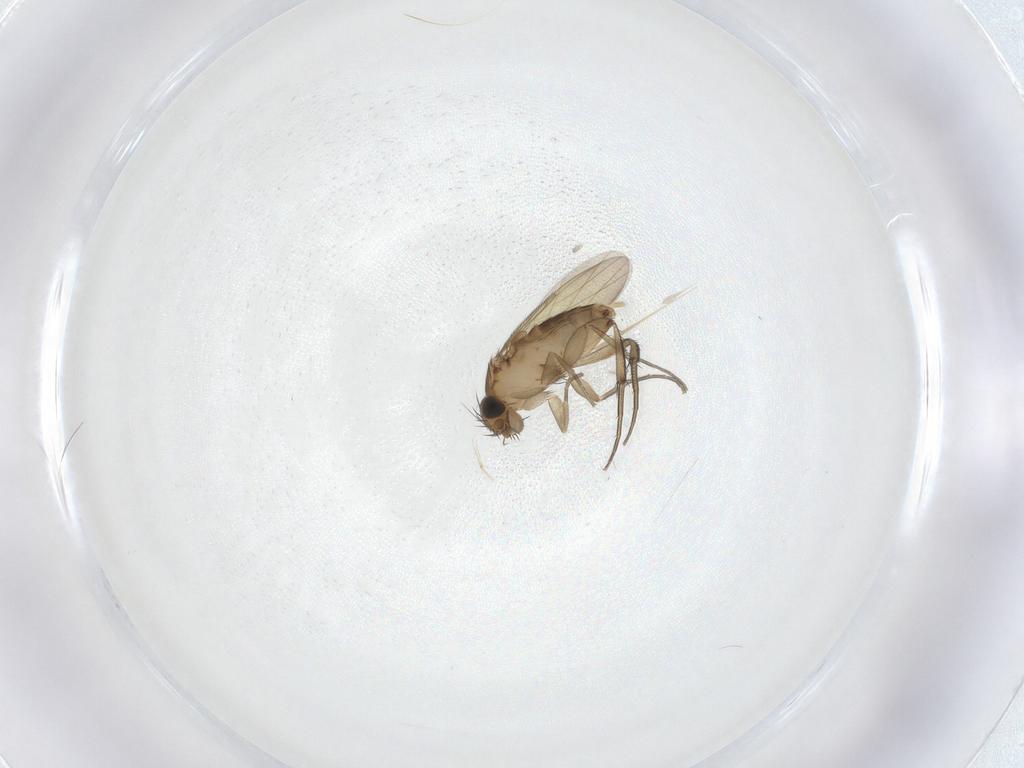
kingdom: Animalia
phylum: Arthropoda
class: Insecta
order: Diptera
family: Phoridae
